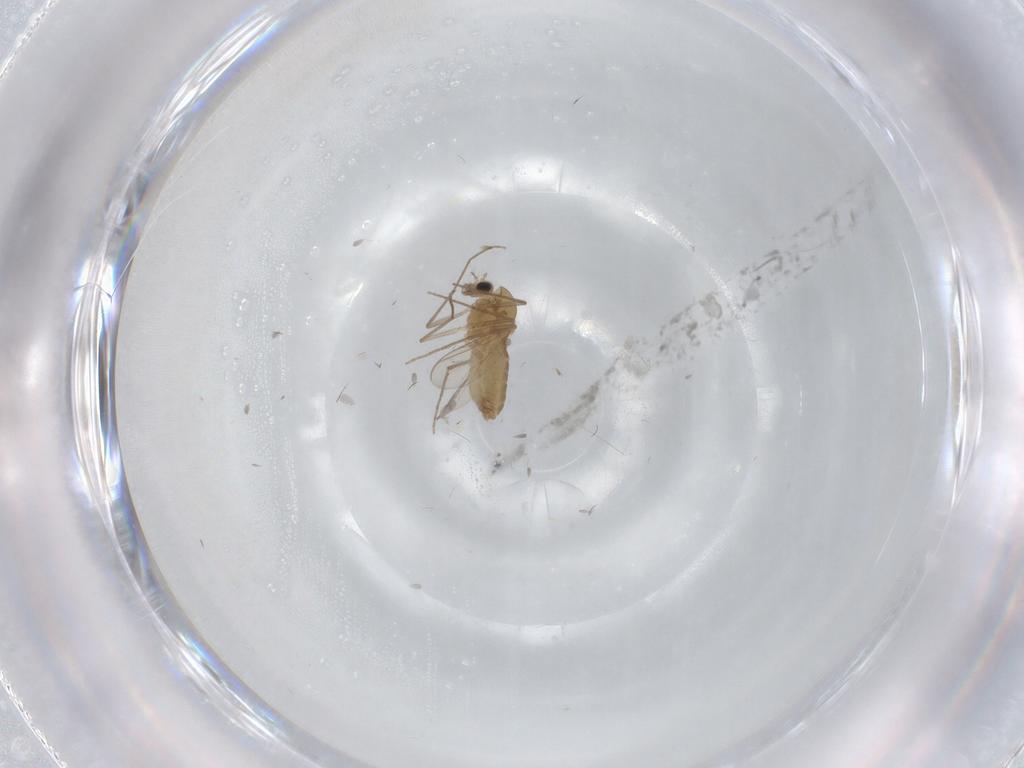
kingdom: Animalia
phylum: Arthropoda
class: Insecta
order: Diptera
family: Chironomidae
